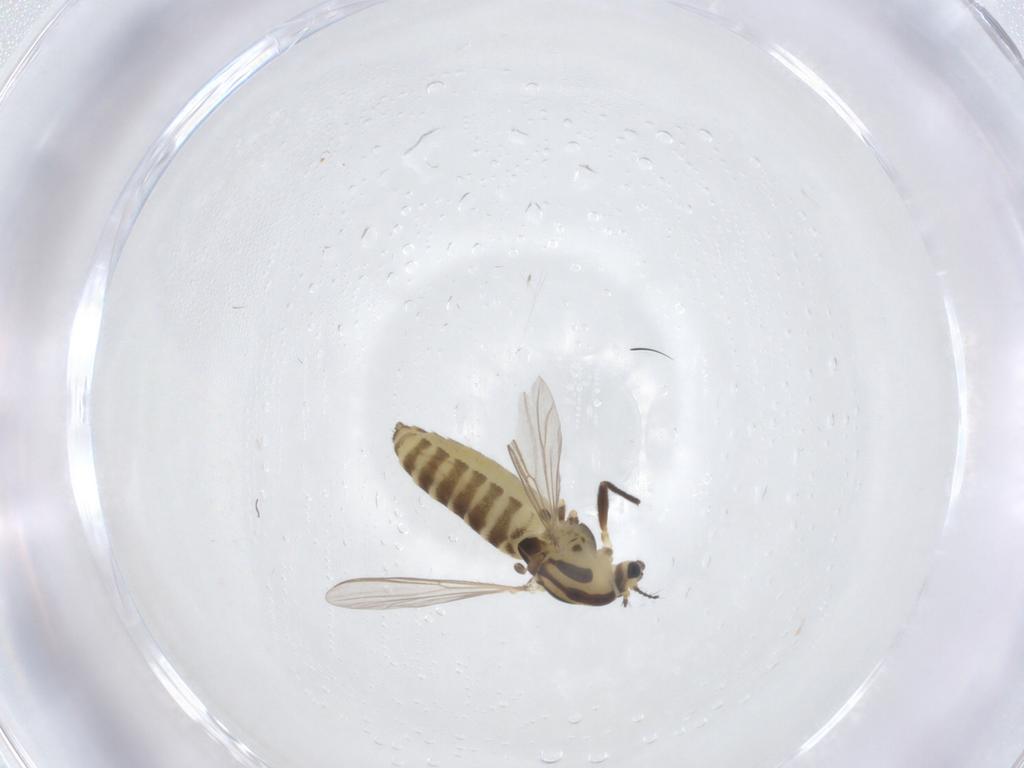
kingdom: Animalia
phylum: Arthropoda
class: Insecta
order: Diptera
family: Chironomidae
